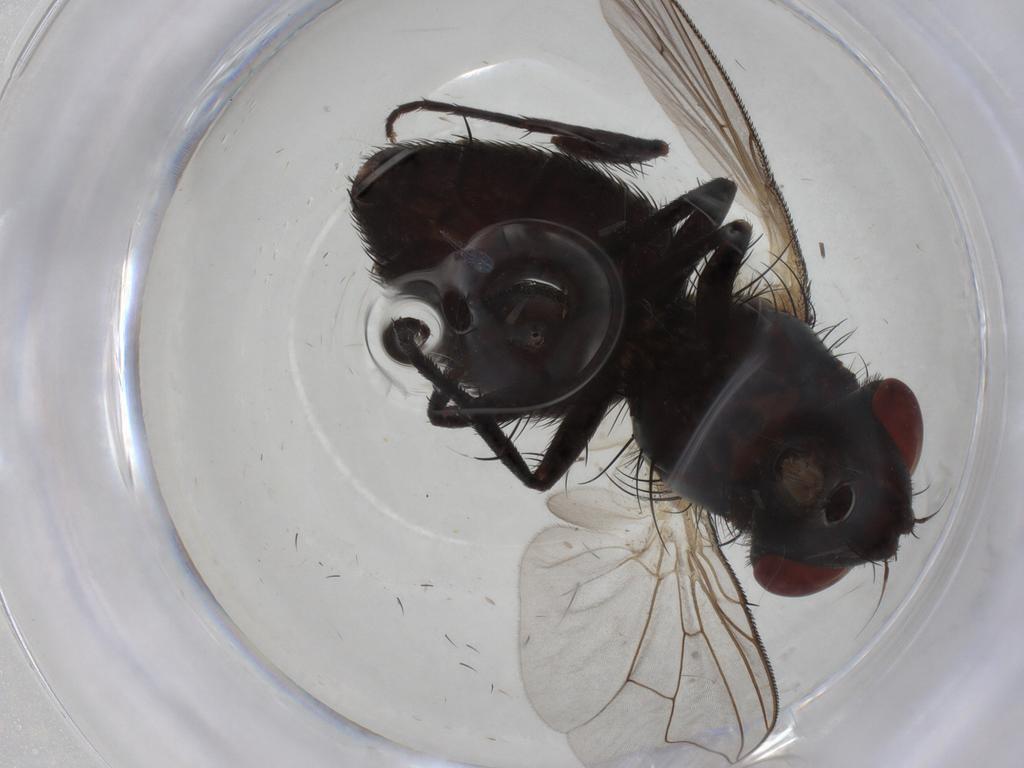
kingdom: Animalia
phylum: Arthropoda
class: Insecta
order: Diptera
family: Sarcophagidae
